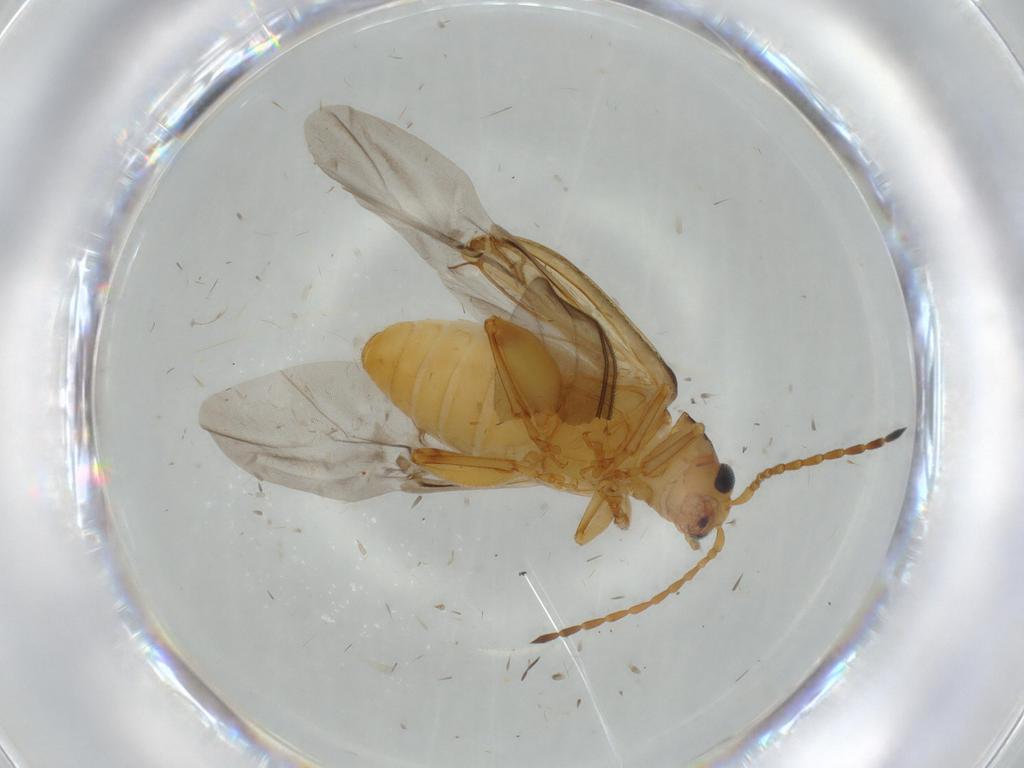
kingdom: Animalia
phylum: Arthropoda
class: Insecta
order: Coleoptera
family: Chrysomelidae
